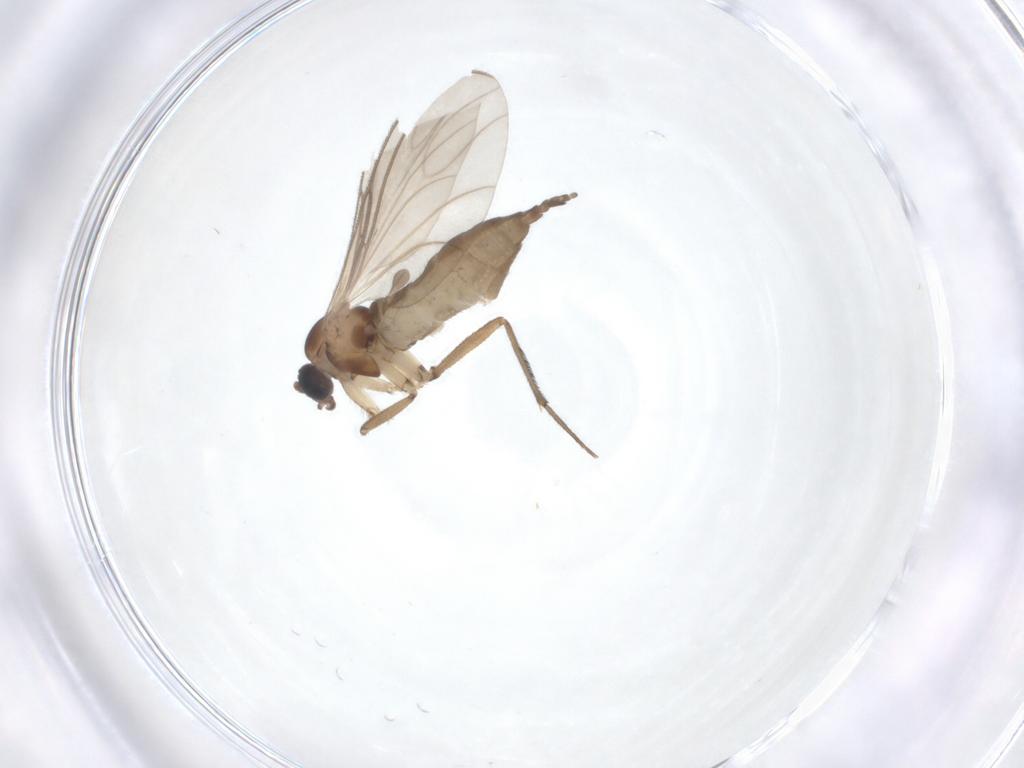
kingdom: Animalia
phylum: Arthropoda
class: Insecta
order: Diptera
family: Sciaridae
